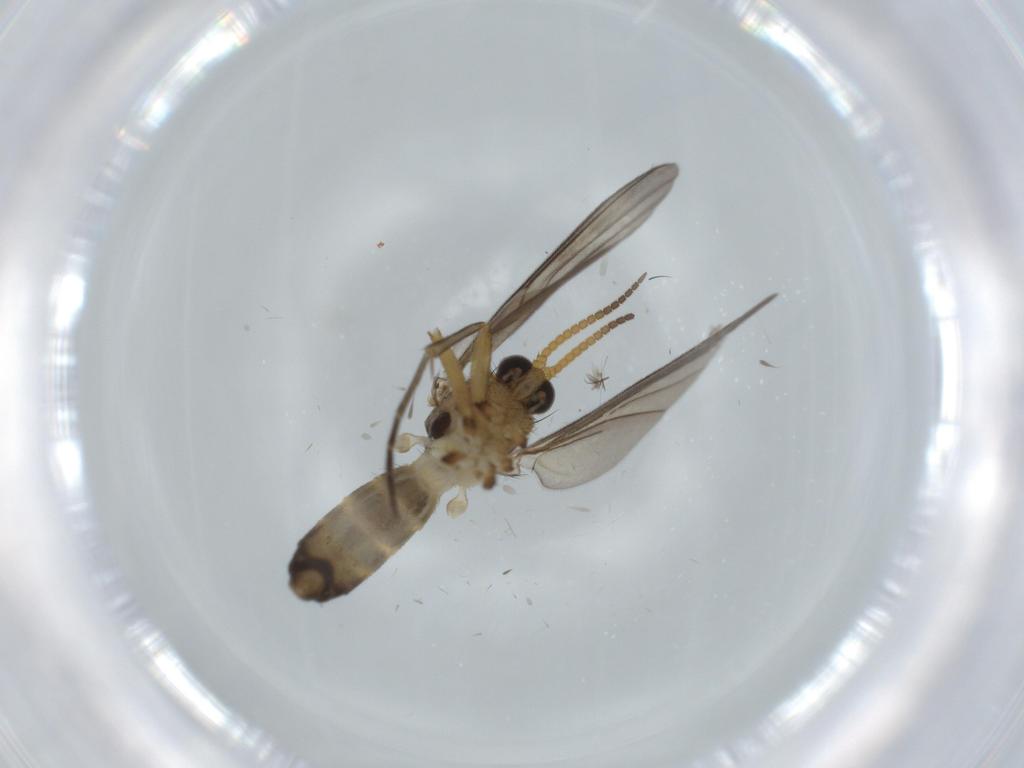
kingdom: Animalia
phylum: Arthropoda
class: Insecta
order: Diptera
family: Mycetophilidae
